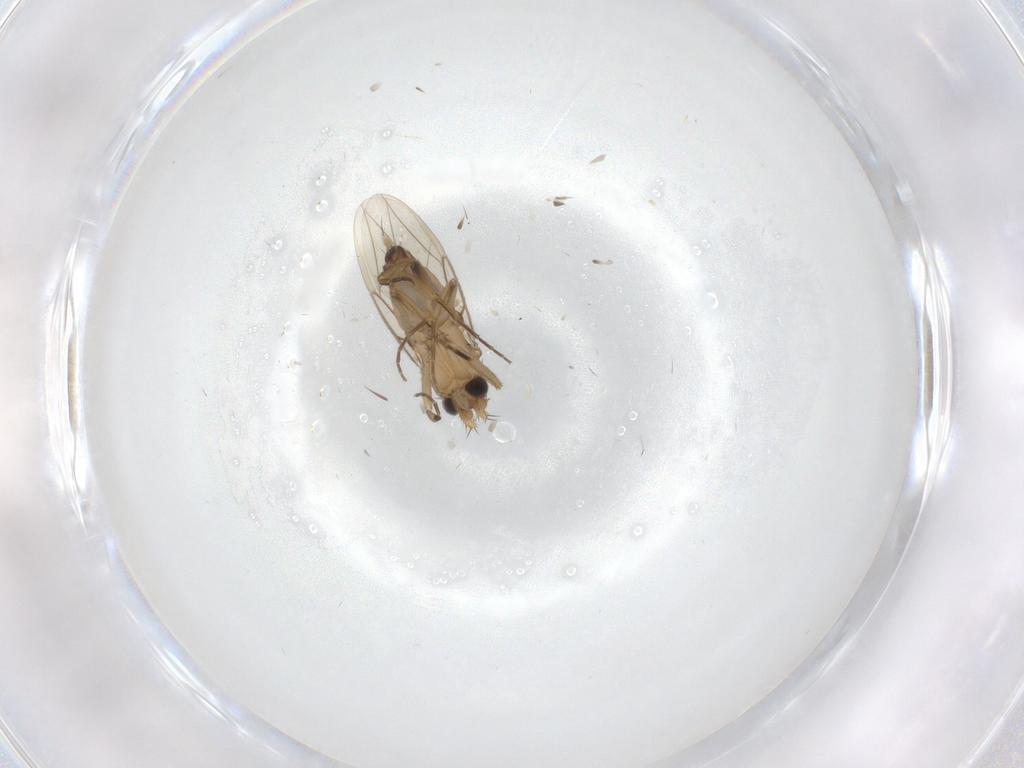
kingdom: Animalia
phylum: Arthropoda
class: Insecta
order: Diptera
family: Phoridae
